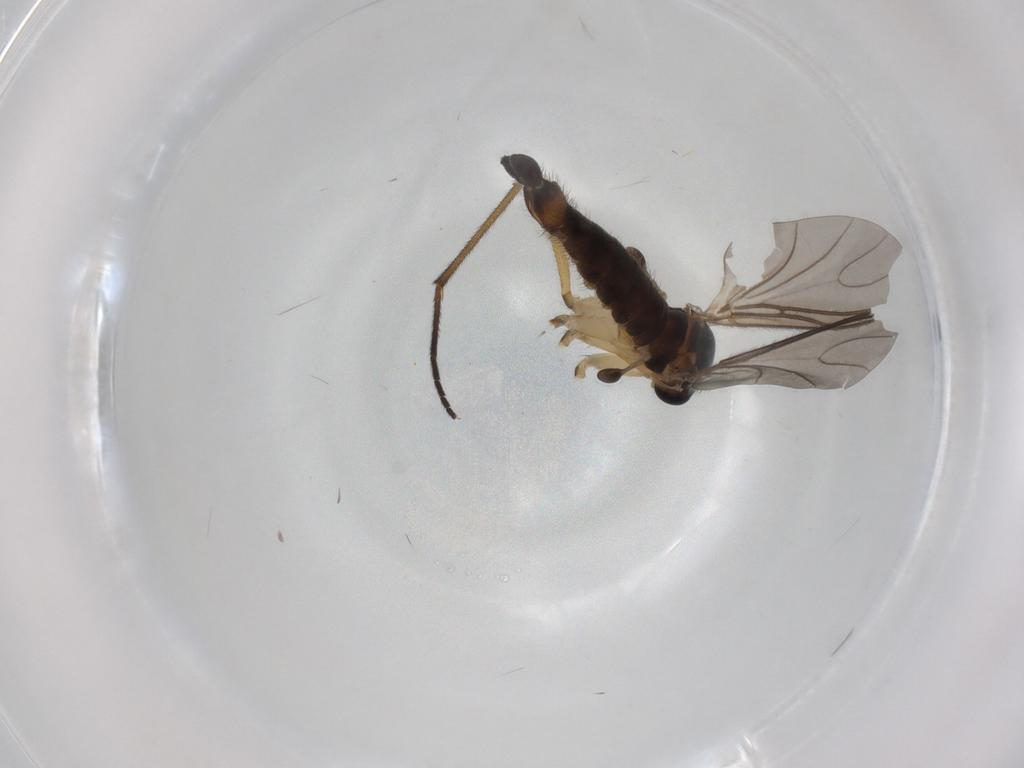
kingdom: Animalia
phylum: Arthropoda
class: Insecta
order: Diptera
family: Sciaridae
